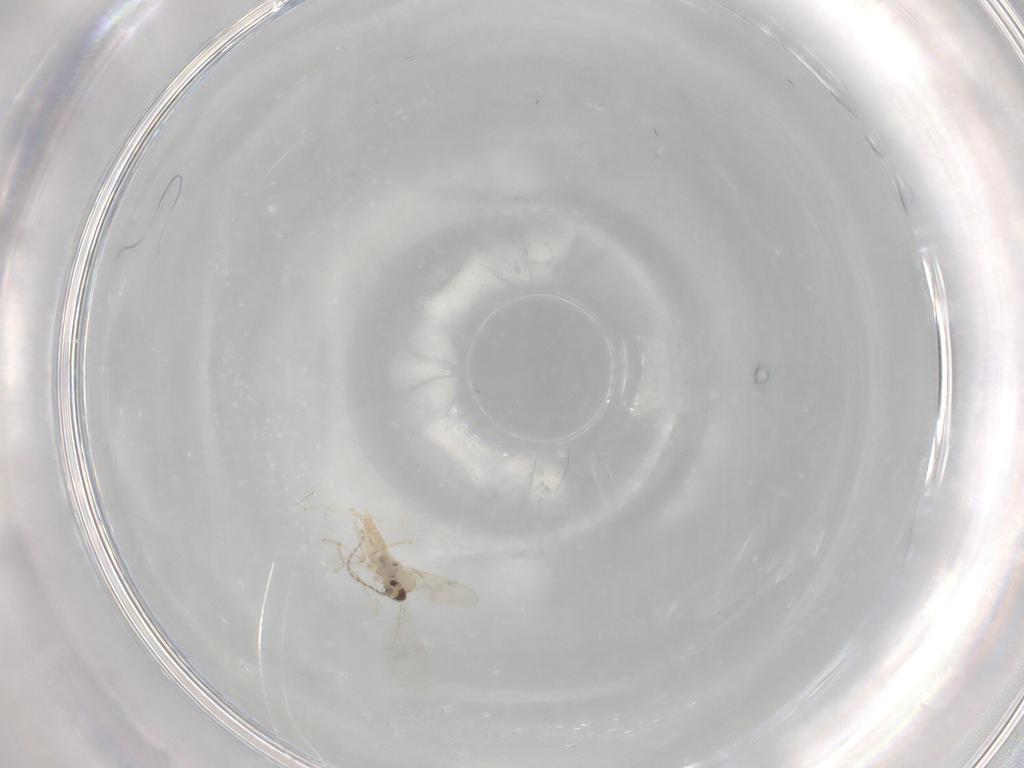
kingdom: Animalia
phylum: Arthropoda
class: Insecta
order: Diptera
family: Cecidomyiidae
